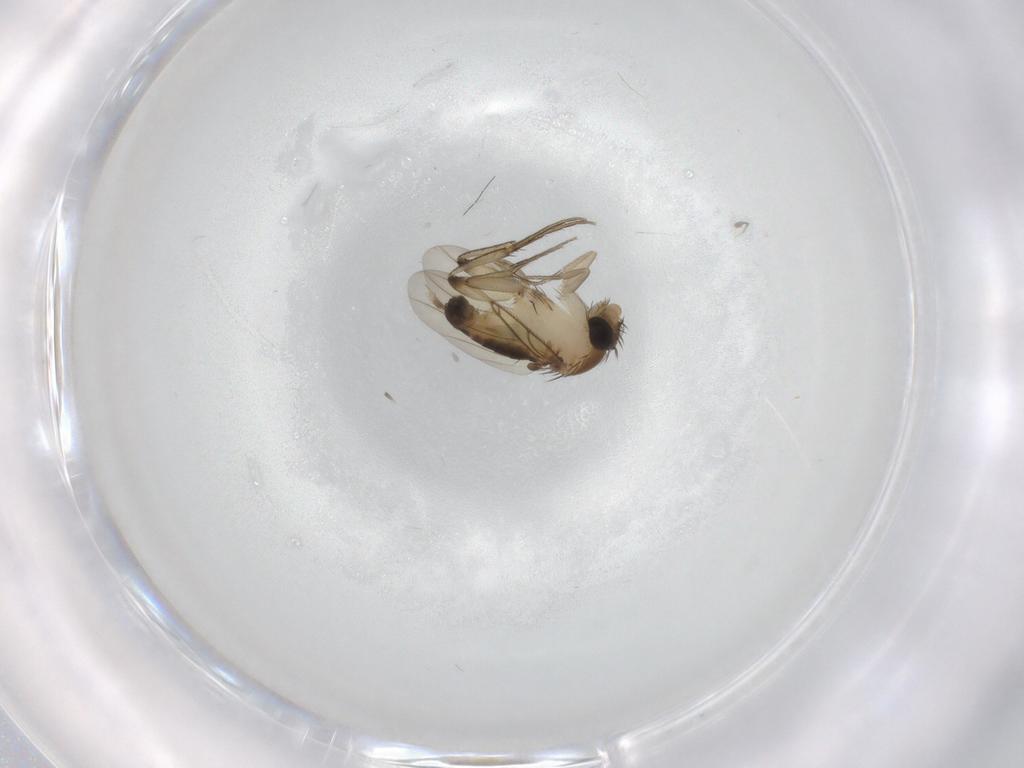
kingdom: Animalia
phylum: Arthropoda
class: Insecta
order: Diptera
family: Phoridae
